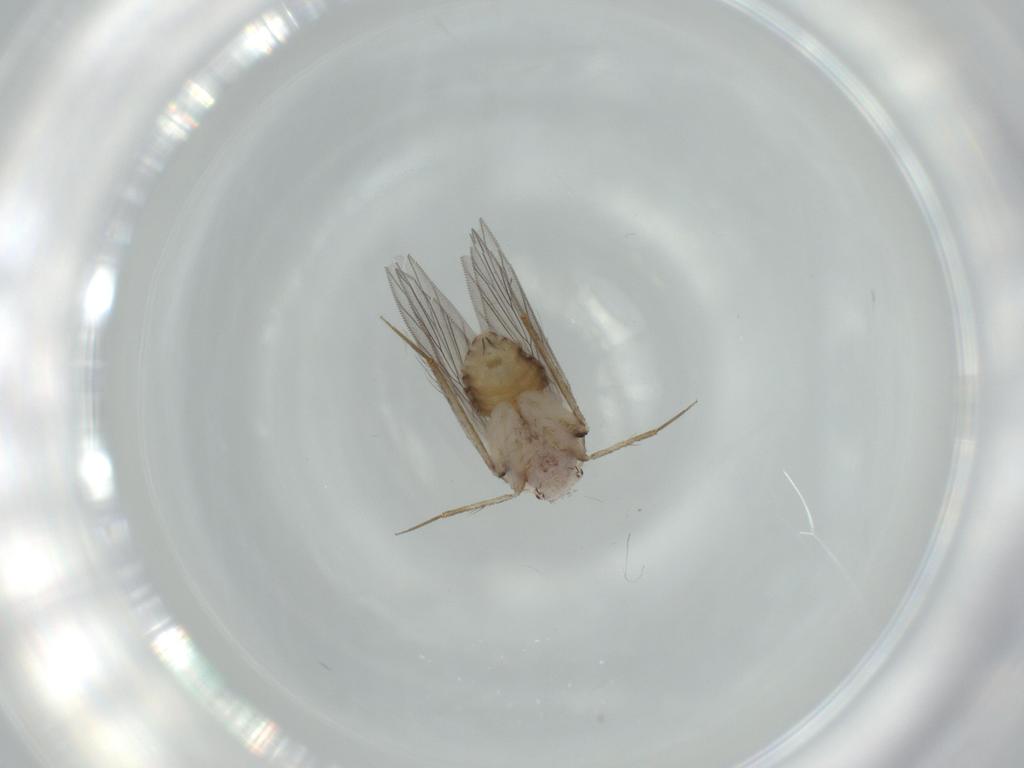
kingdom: Animalia
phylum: Arthropoda
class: Insecta
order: Psocodea
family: Lepidopsocidae
